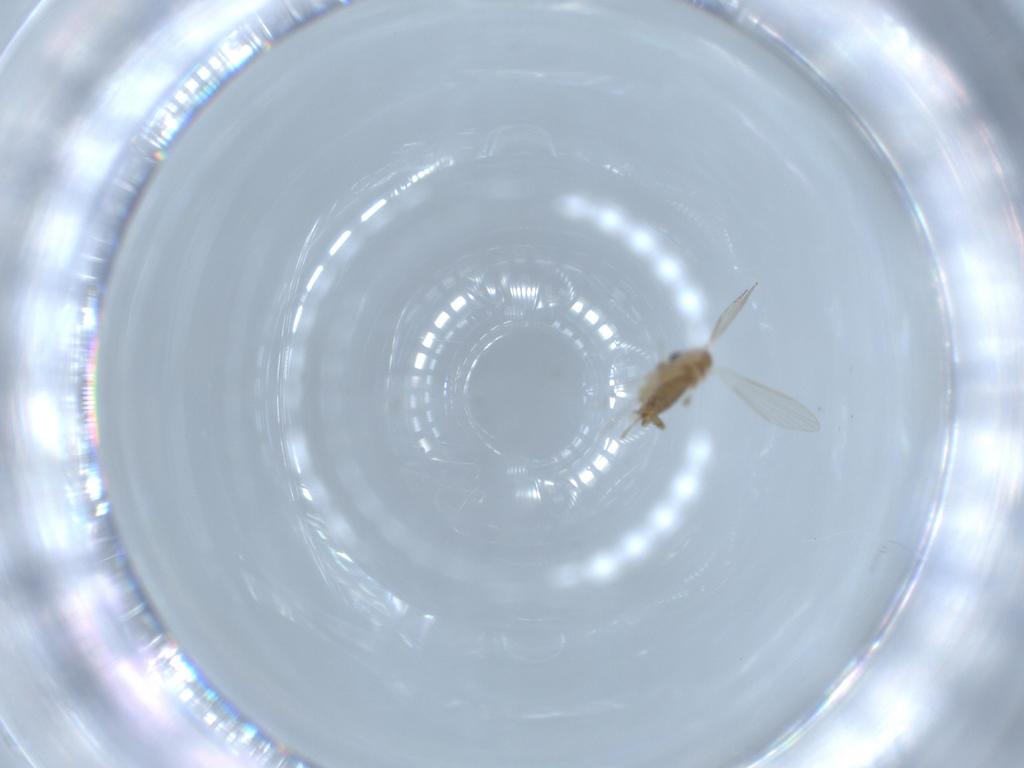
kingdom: Animalia
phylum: Arthropoda
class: Insecta
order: Diptera
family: Psychodidae
